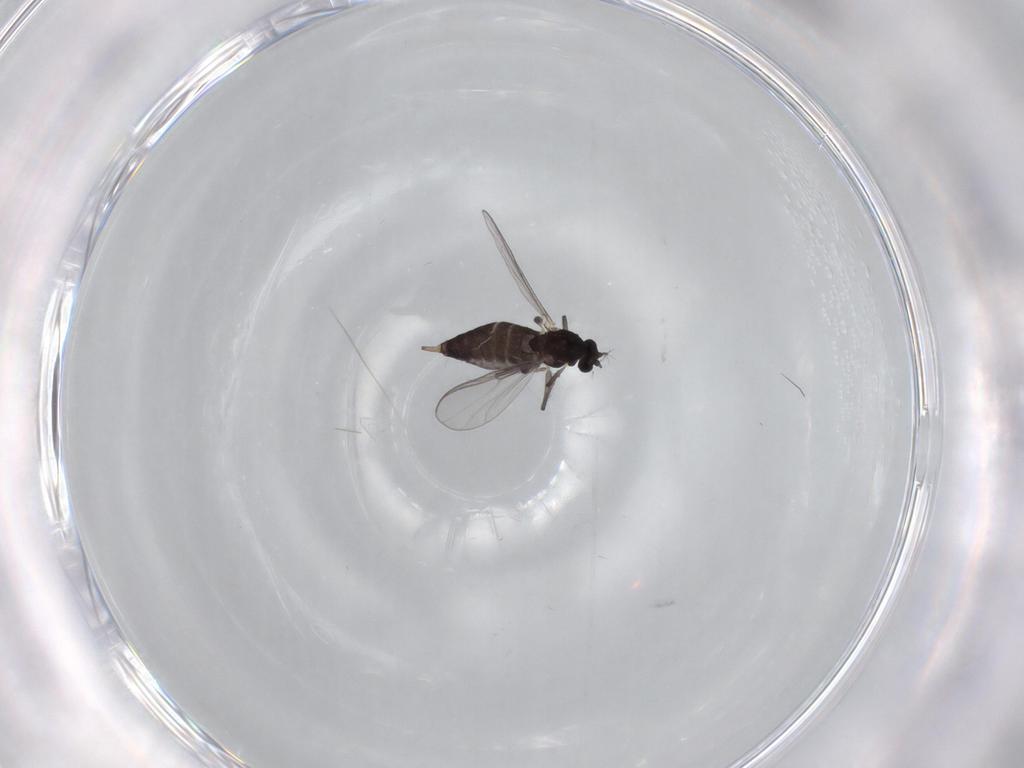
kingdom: Animalia
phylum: Arthropoda
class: Insecta
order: Diptera
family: Chironomidae
